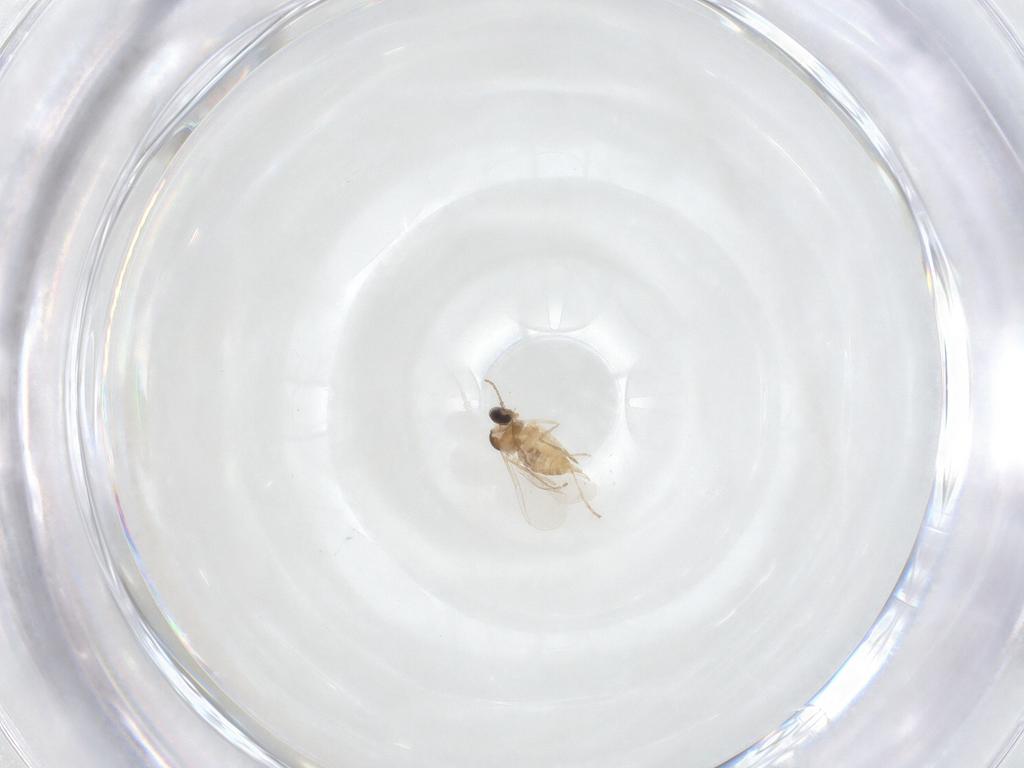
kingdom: Animalia
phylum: Arthropoda
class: Insecta
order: Diptera
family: Cecidomyiidae
